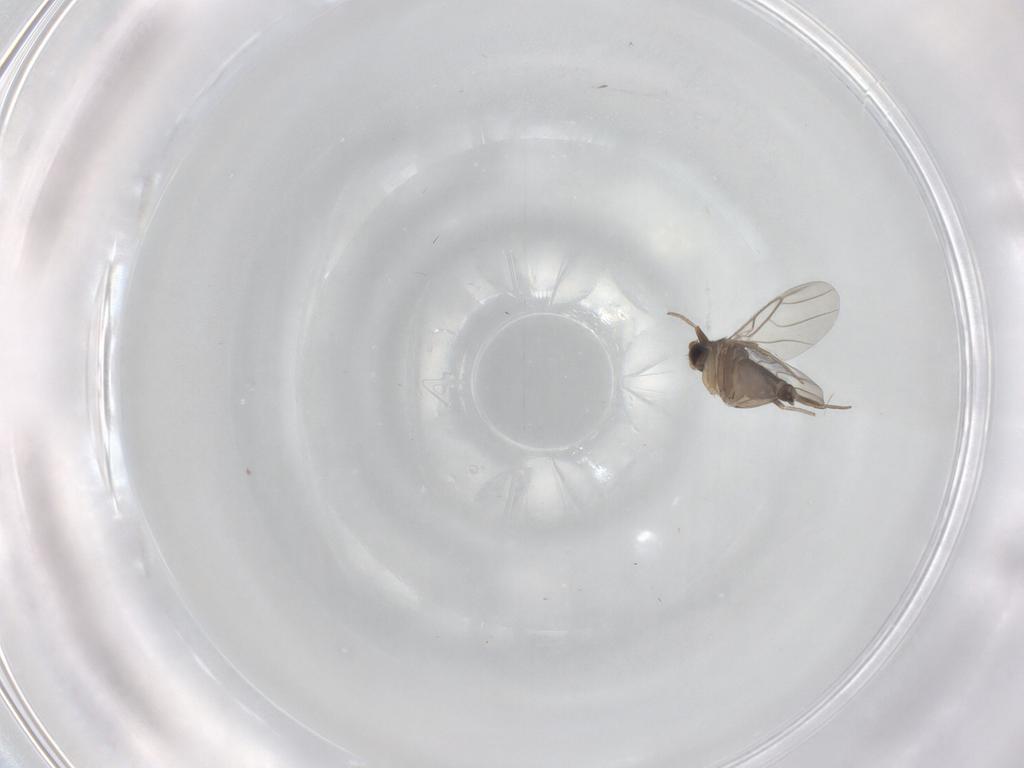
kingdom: Animalia
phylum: Arthropoda
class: Insecta
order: Diptera
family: Phoridae
